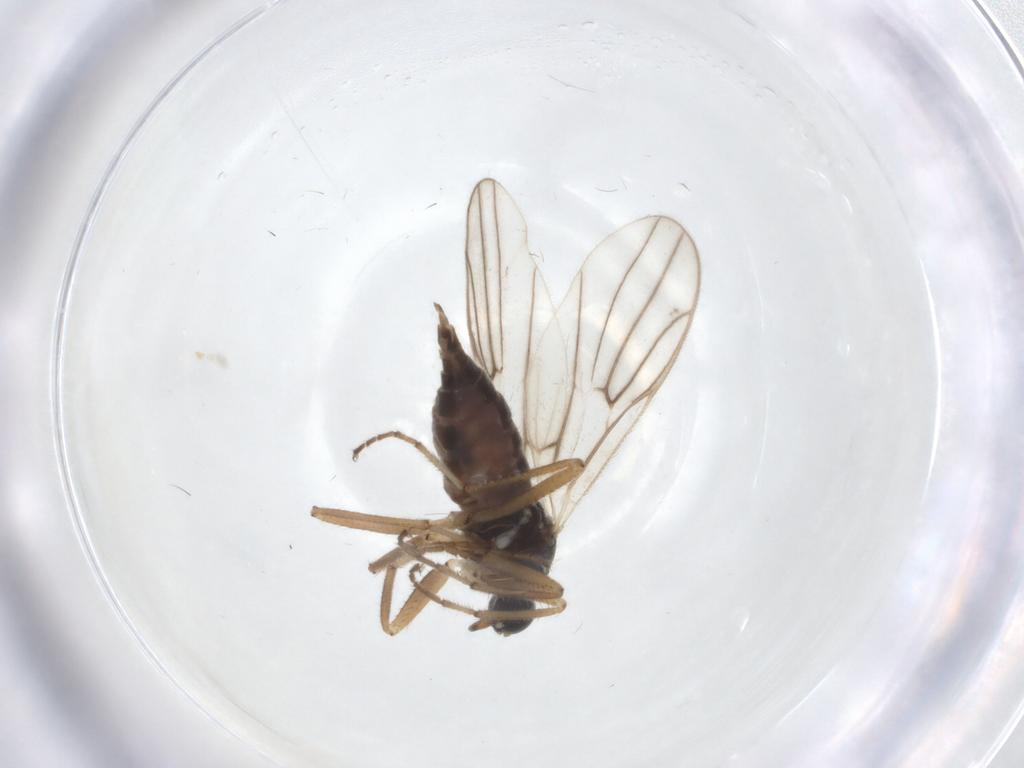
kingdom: Animalia
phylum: Arthropoda
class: Insecta
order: Diptera
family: Hybotidae
